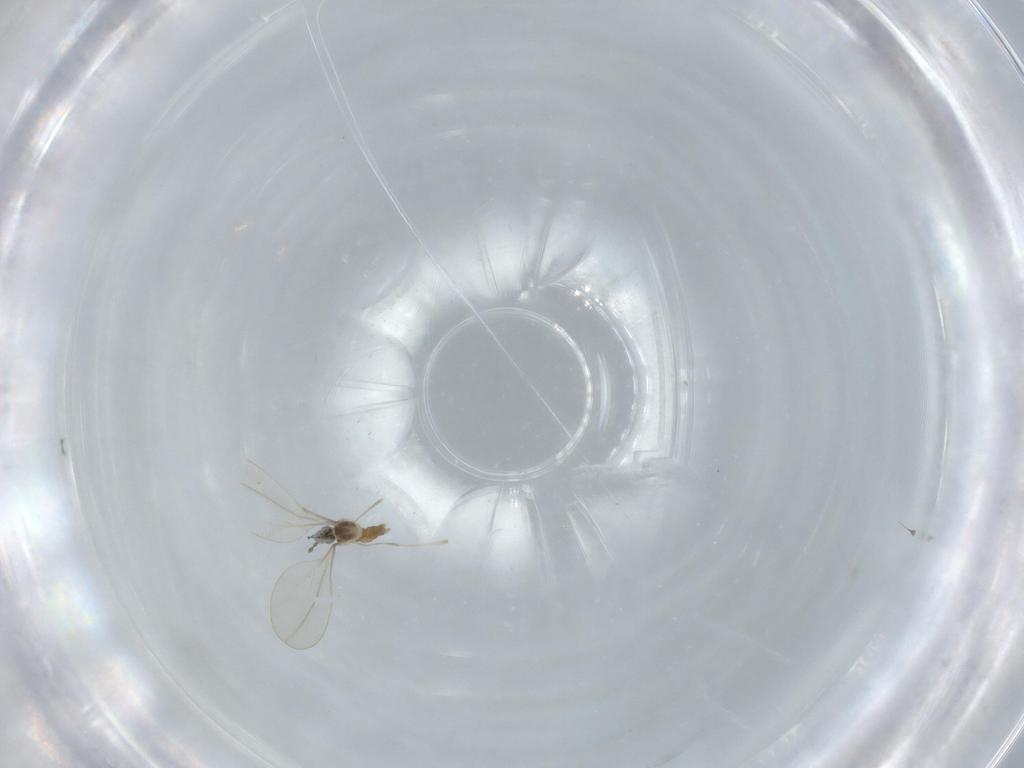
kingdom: Animalia
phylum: Arthropoda
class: Insecta
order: Diptera
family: Cecidomyiidae
